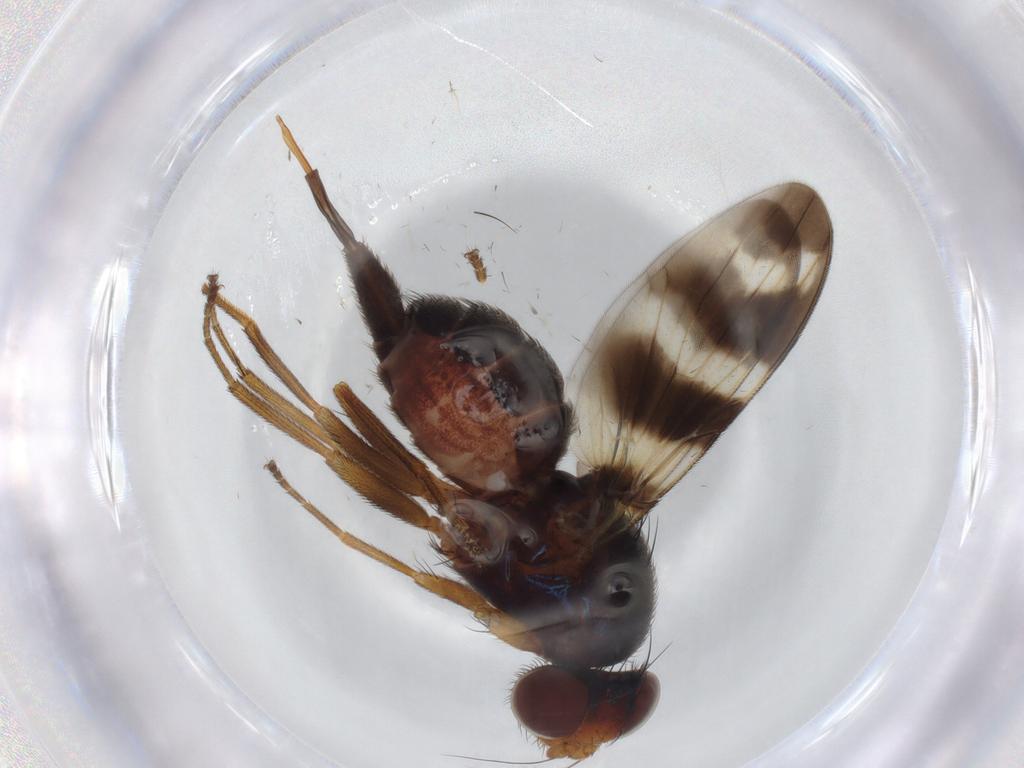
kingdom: Animalia
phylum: Arthropoda
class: Insecta
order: Diptera
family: Ulidiidae
